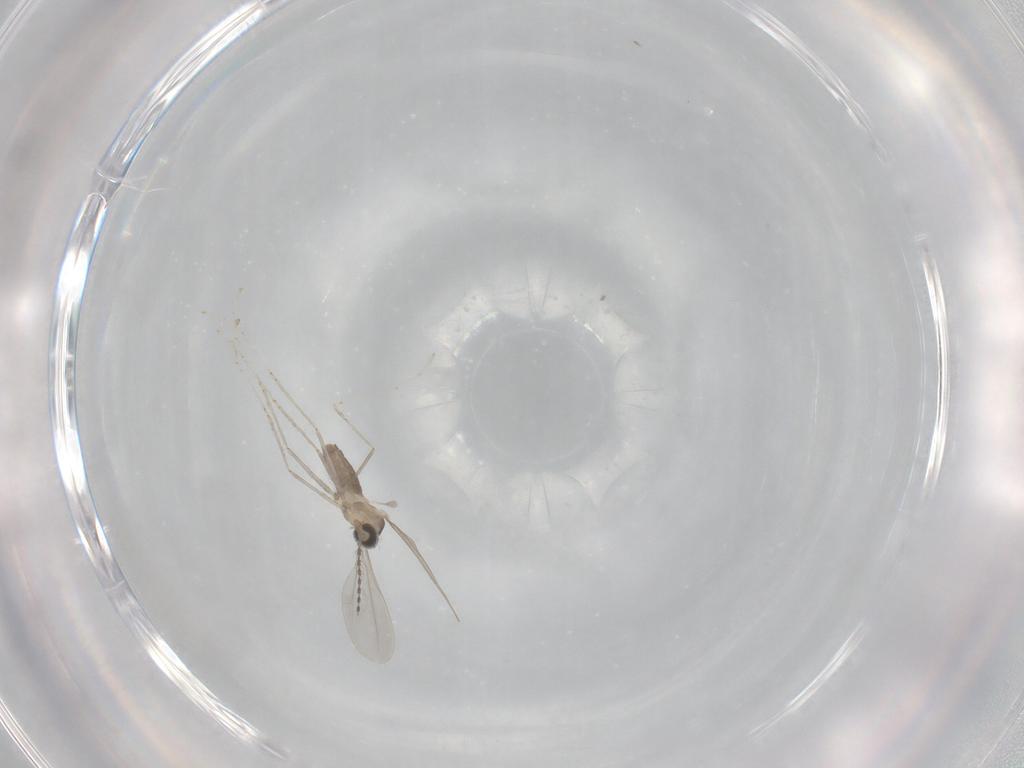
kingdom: Animalia
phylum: Arthropoda
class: Insecta
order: Diptera
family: Cecidomyiidae
